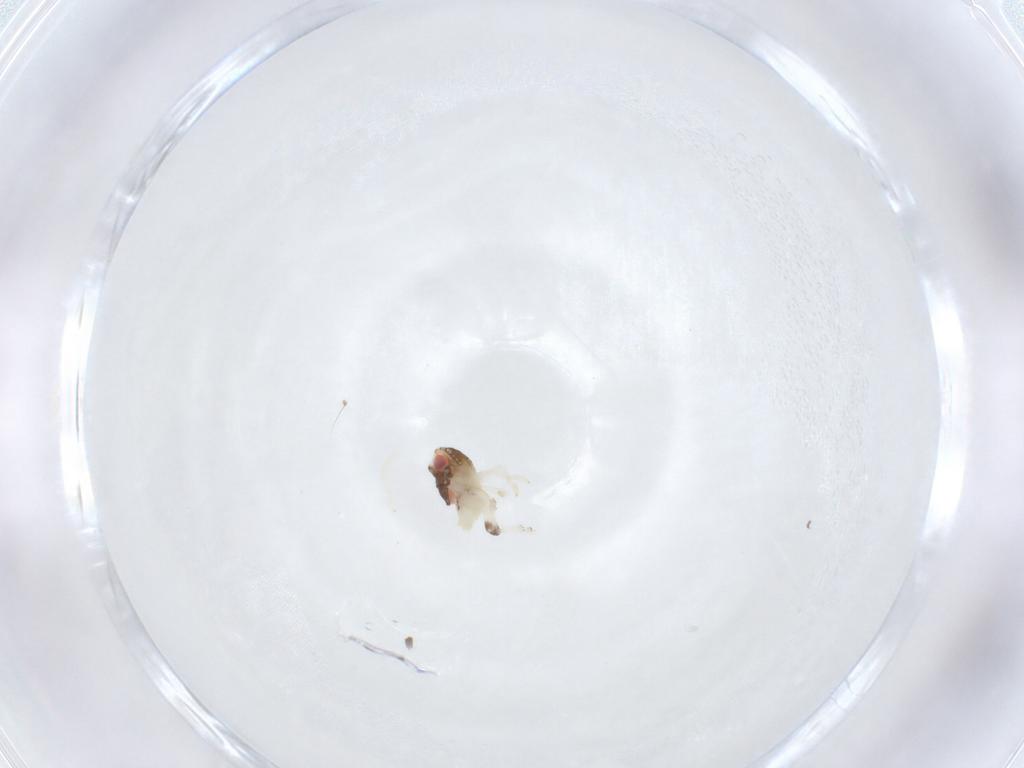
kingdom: Animalia
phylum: Arthropoda
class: Insecta
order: Hemiptera
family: Nogodinidae
